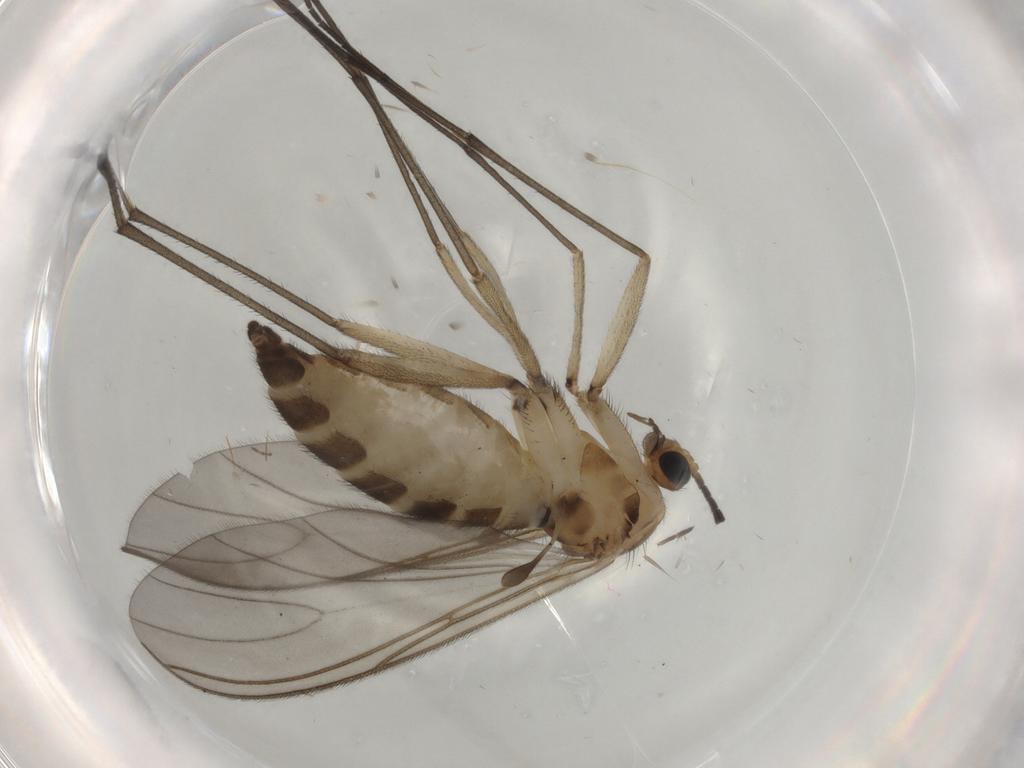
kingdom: Animalia
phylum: Arthropoda
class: Insecta
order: Diptera
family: Sciaridae
